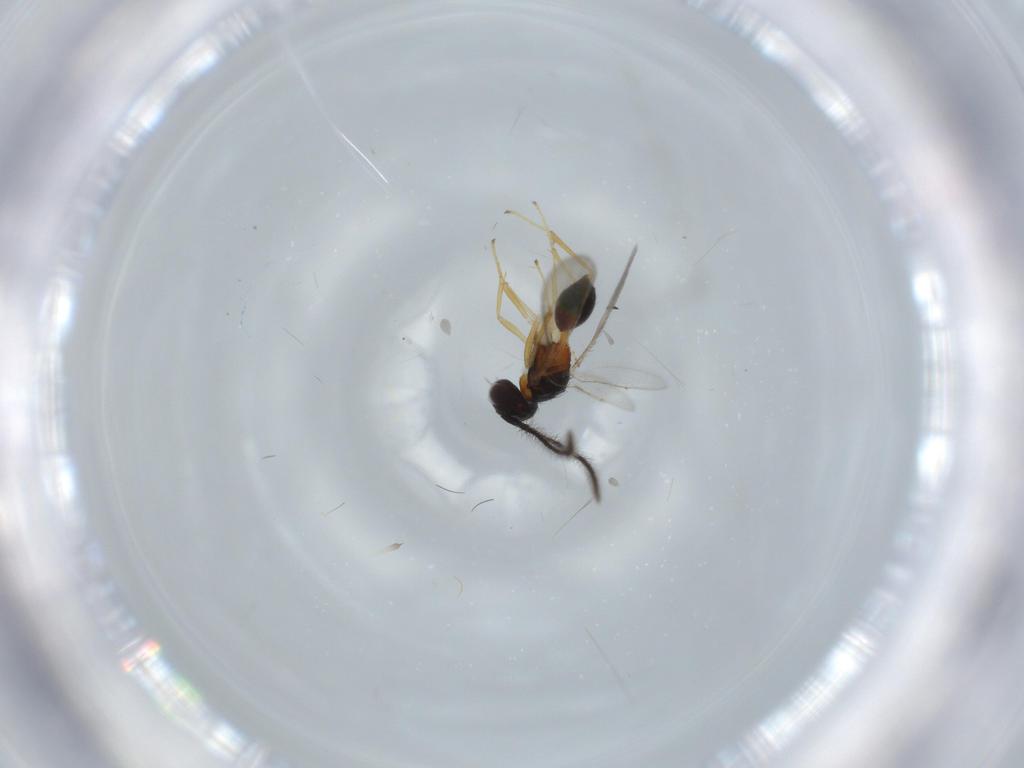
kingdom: Animalia
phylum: Arthropoda
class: Insecta
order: Hymenoptera
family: Diparidae
